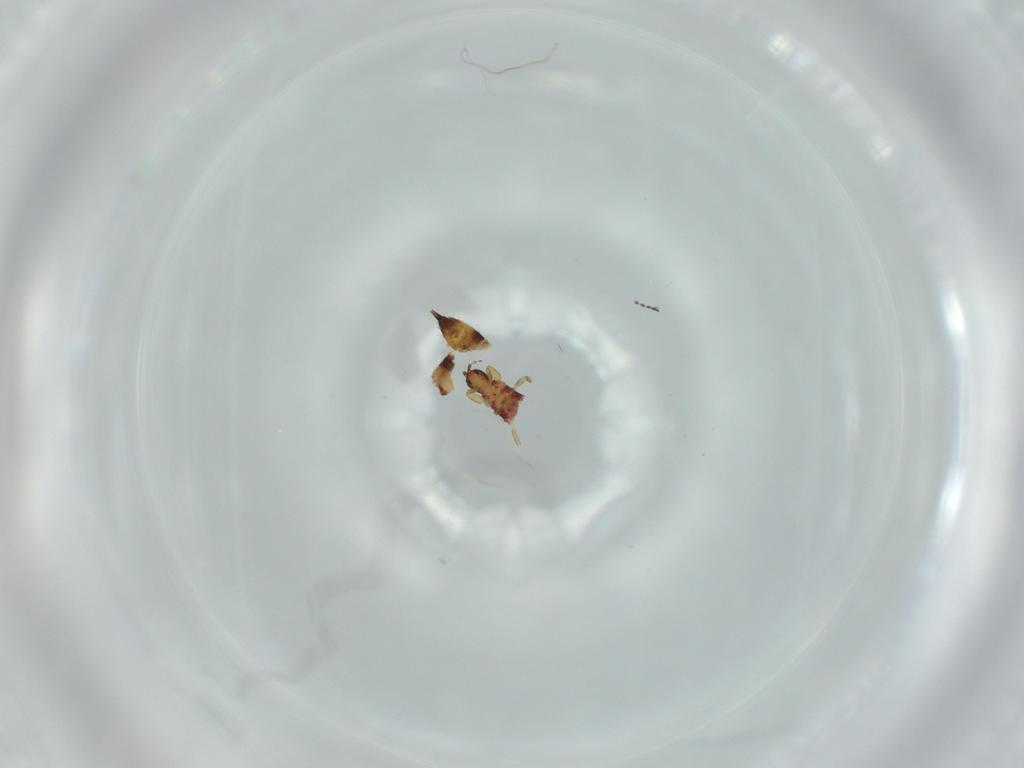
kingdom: Animalia
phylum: Arthropoda
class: Insecta
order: Thysanoptera
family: Phlaeothripidae
